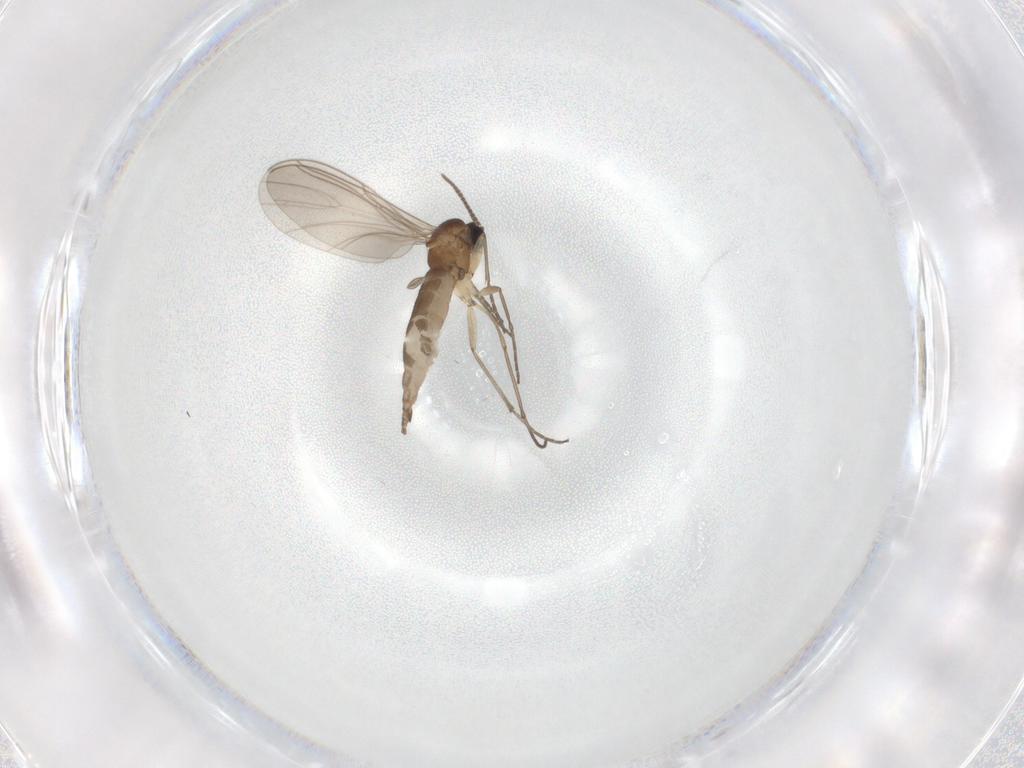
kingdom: Animalia
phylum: Arthropoda
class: Insecta
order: Diptera
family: Sciaridae
